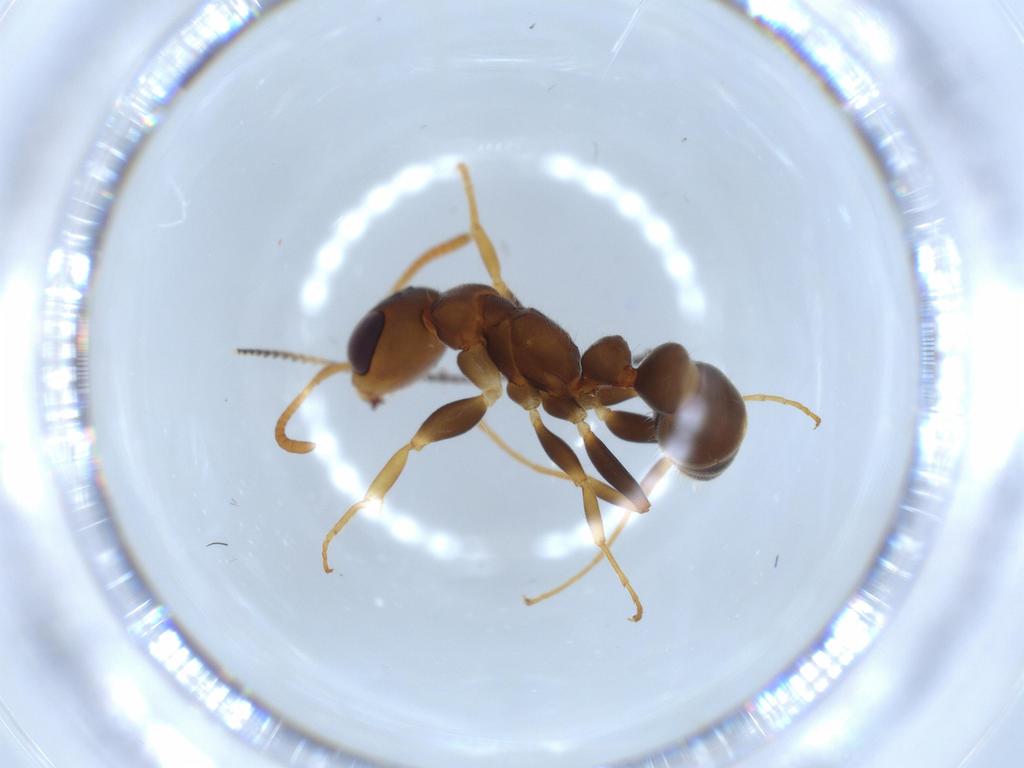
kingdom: Animalia
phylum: Arthropoda
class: Insecta
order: Hymenoptera
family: Formicidae
